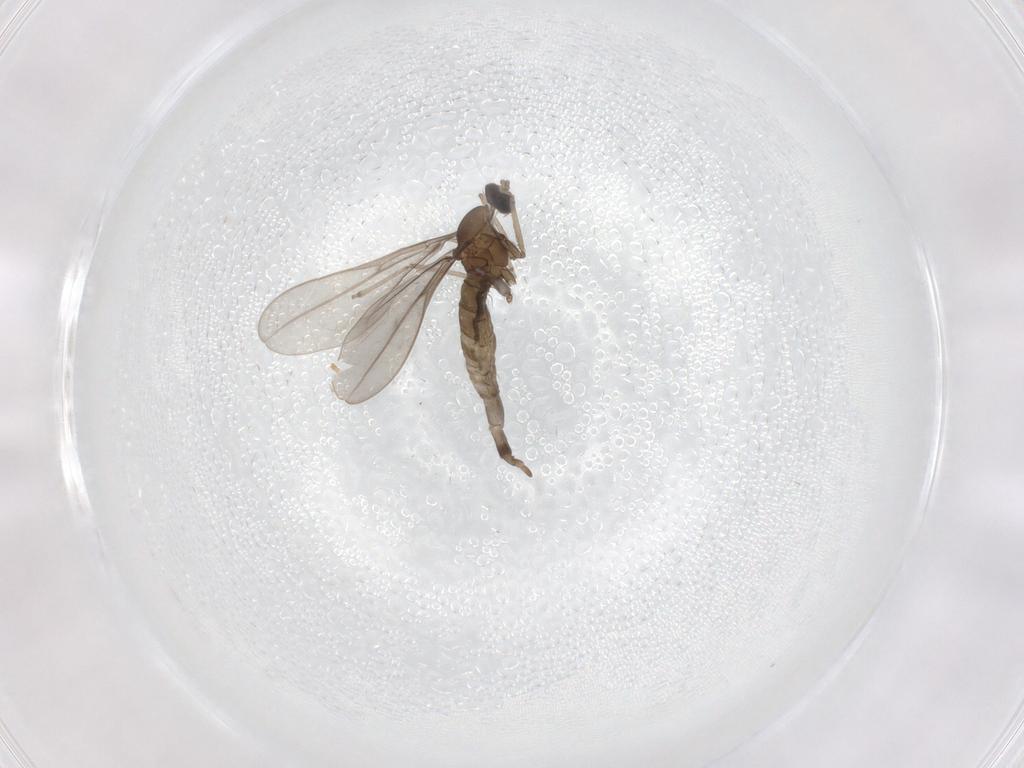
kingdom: Animalia
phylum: Arthropoda
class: Insecta
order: Diptera
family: Cecidomyiidae
